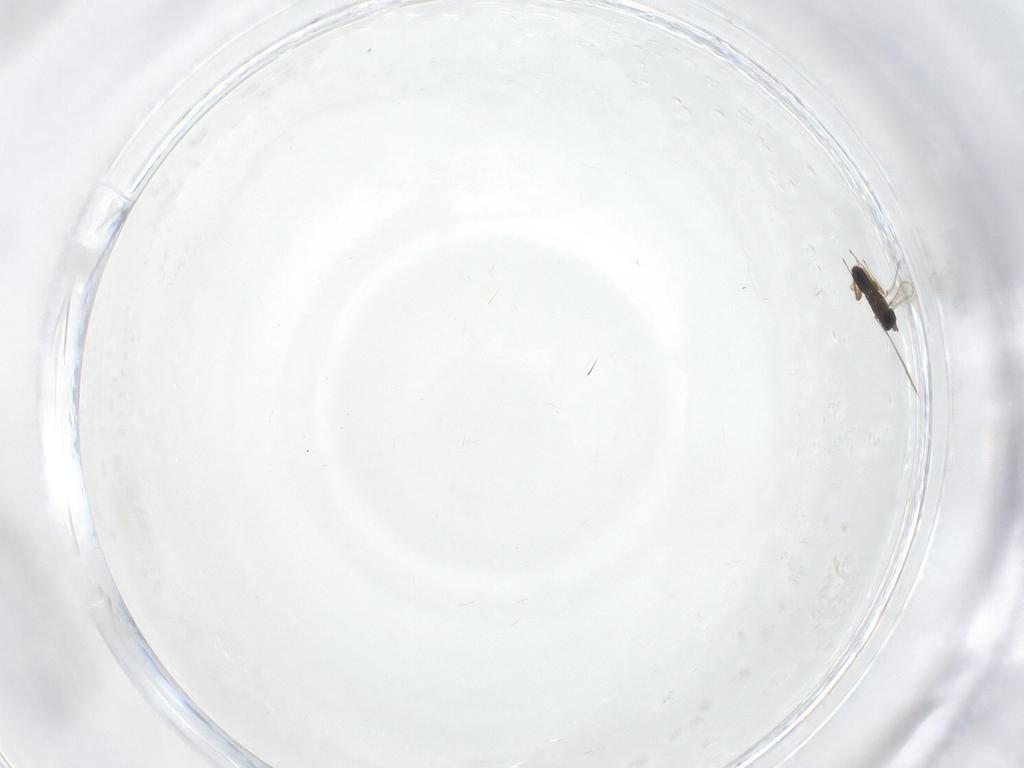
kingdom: Animalia
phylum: Arthropoda
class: Insecta
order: Hymenoptera
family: Mymaridae
